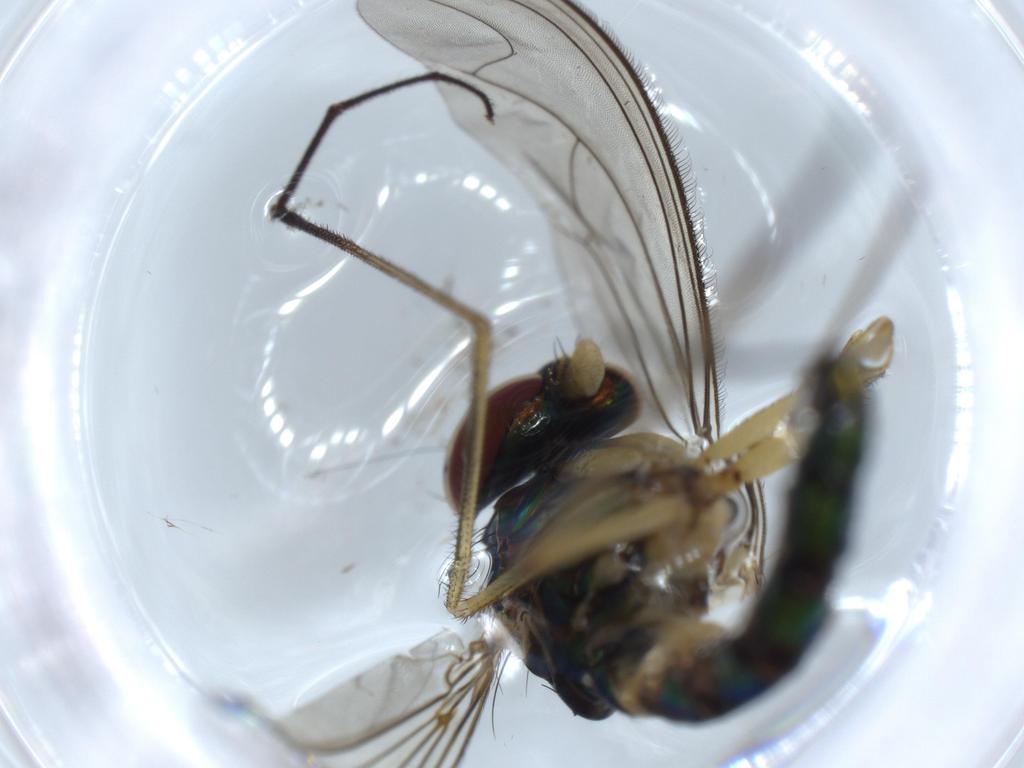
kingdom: Animalia
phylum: Arthropoda
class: Insecta
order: Diptera
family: Dolichopodidae
